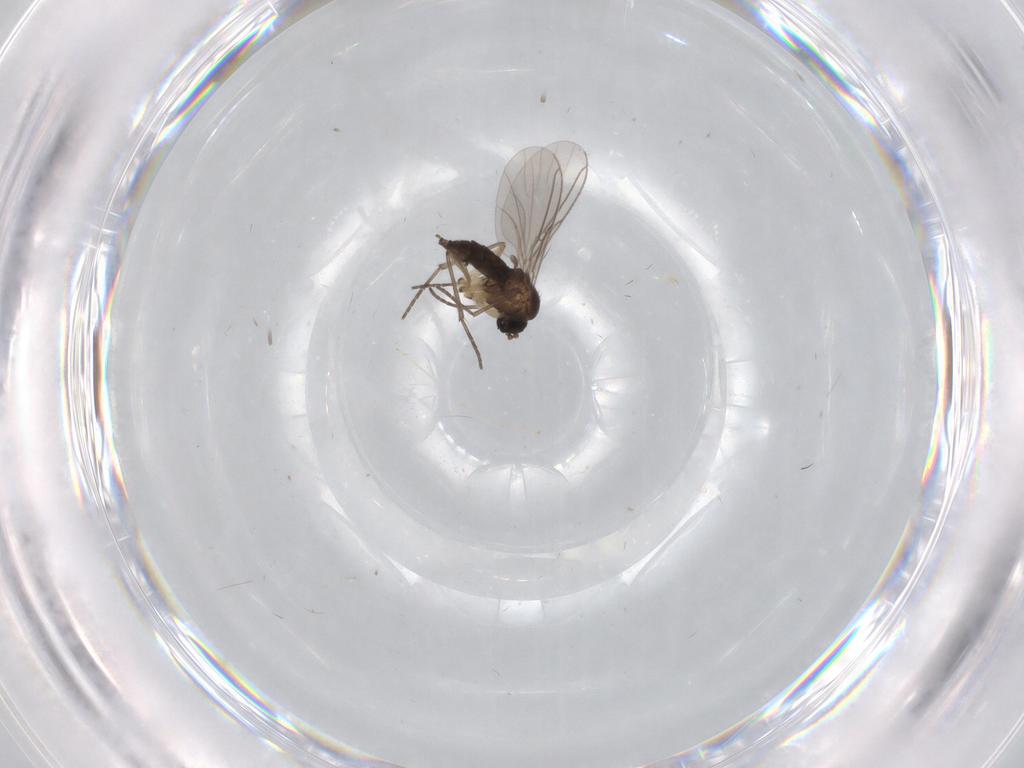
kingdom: Animalia
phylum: Arthropoda
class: Insecta
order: Diptera
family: Sciaridae
